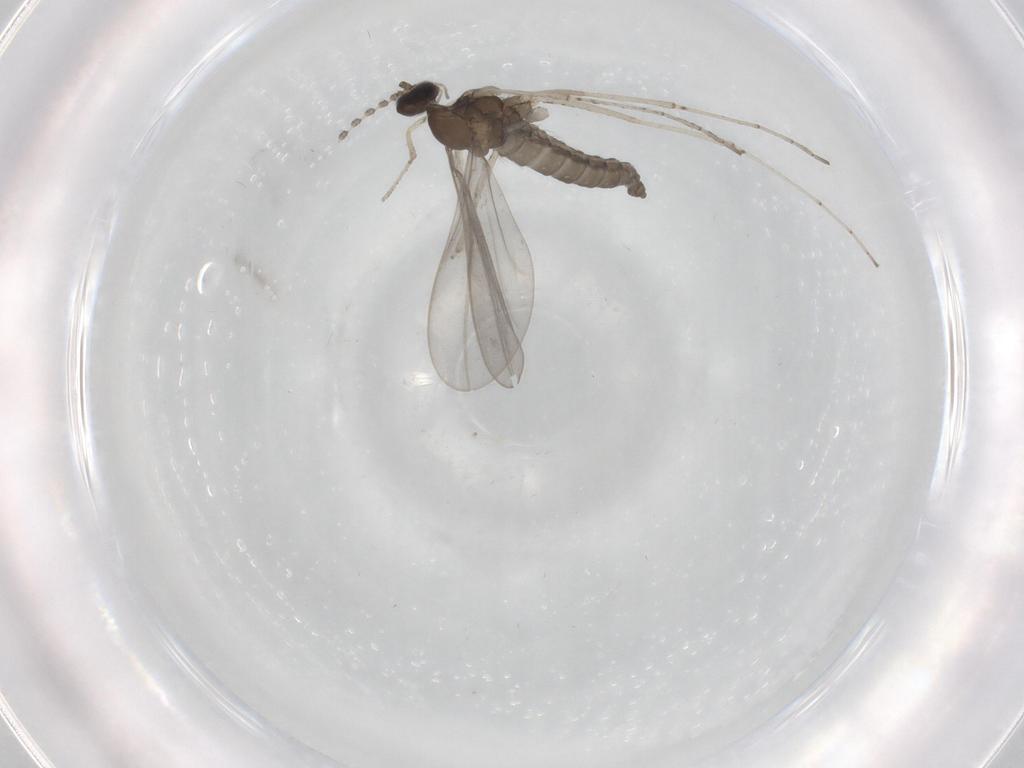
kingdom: Animalia
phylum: Arthropoda
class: Insecta
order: Diptera
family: Cecidomyiidae
